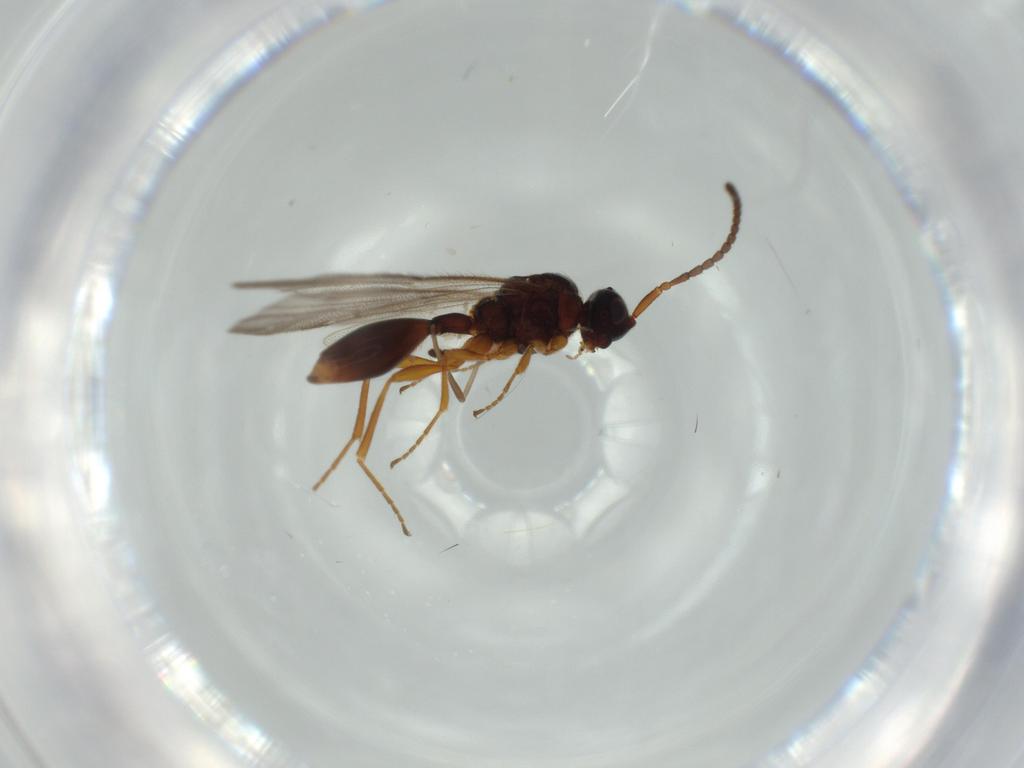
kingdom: Animalia
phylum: Arthropoda
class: Insecta
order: Hymenoptera
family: Mymaridae
